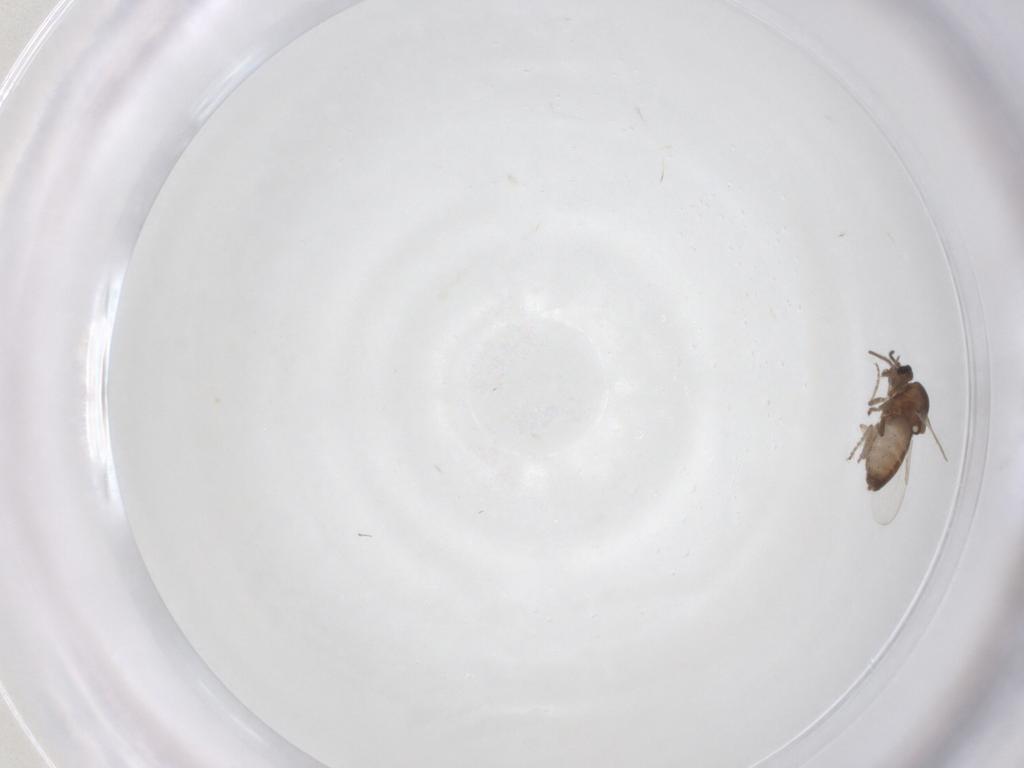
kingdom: Animalia
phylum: Arthropoda
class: Insecta
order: Diptera
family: Ceratopogonidae
